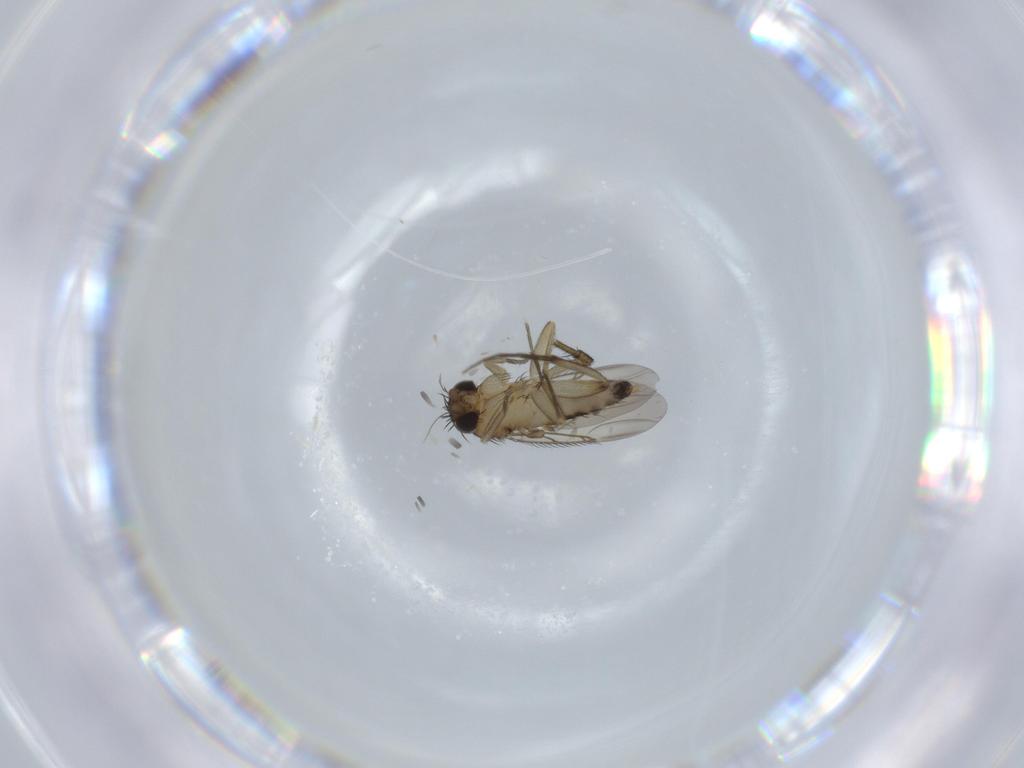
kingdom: Animalia
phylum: Arthropoda
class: Insecta
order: Diptera
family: Phoridae
